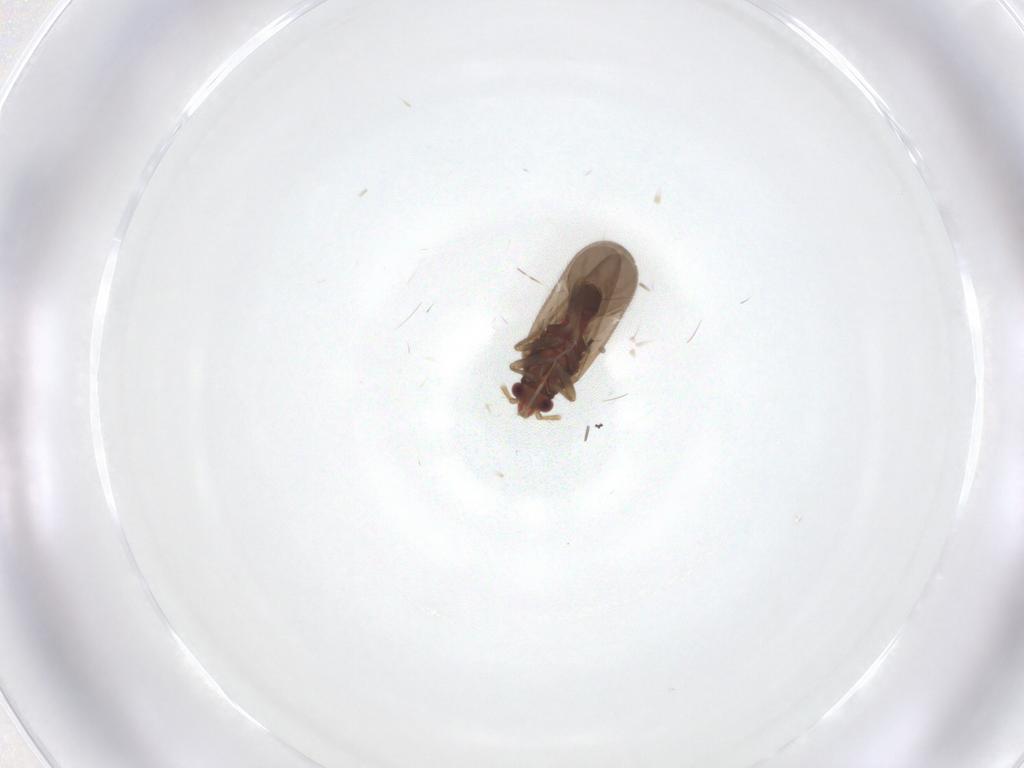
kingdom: Animalia
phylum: Arthropoda
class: Insecta
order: Hemiptera
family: Ceratocombidae
